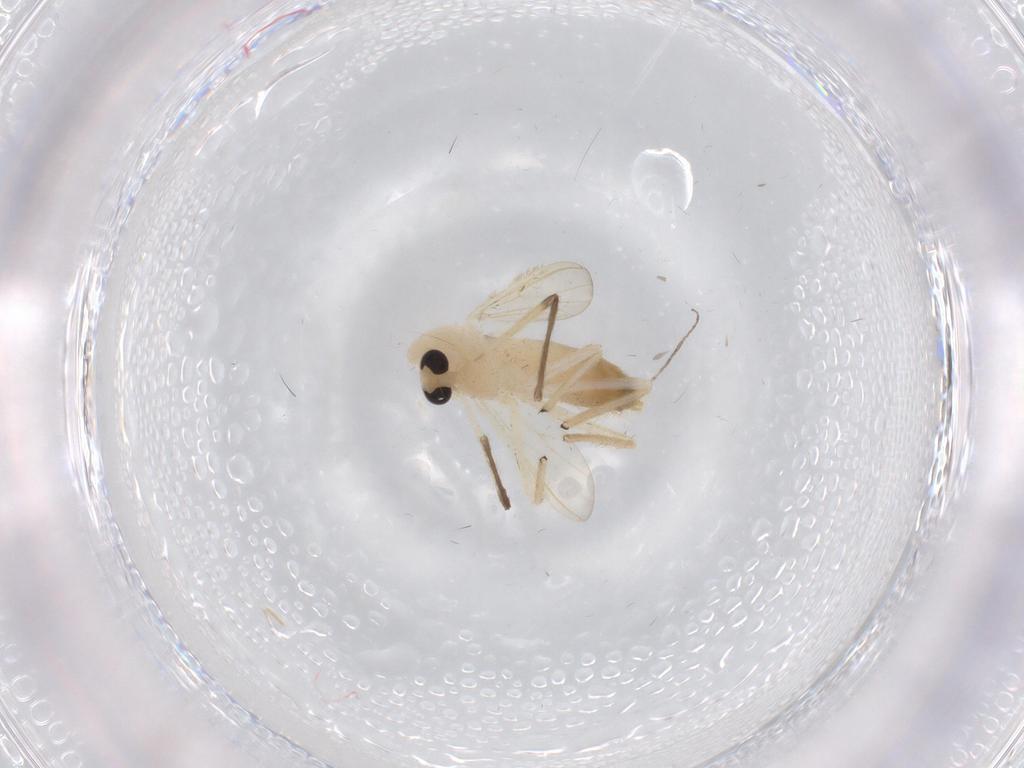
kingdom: Animalia
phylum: Arthropoda
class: Insecta
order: Diptera
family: Chironomidae
